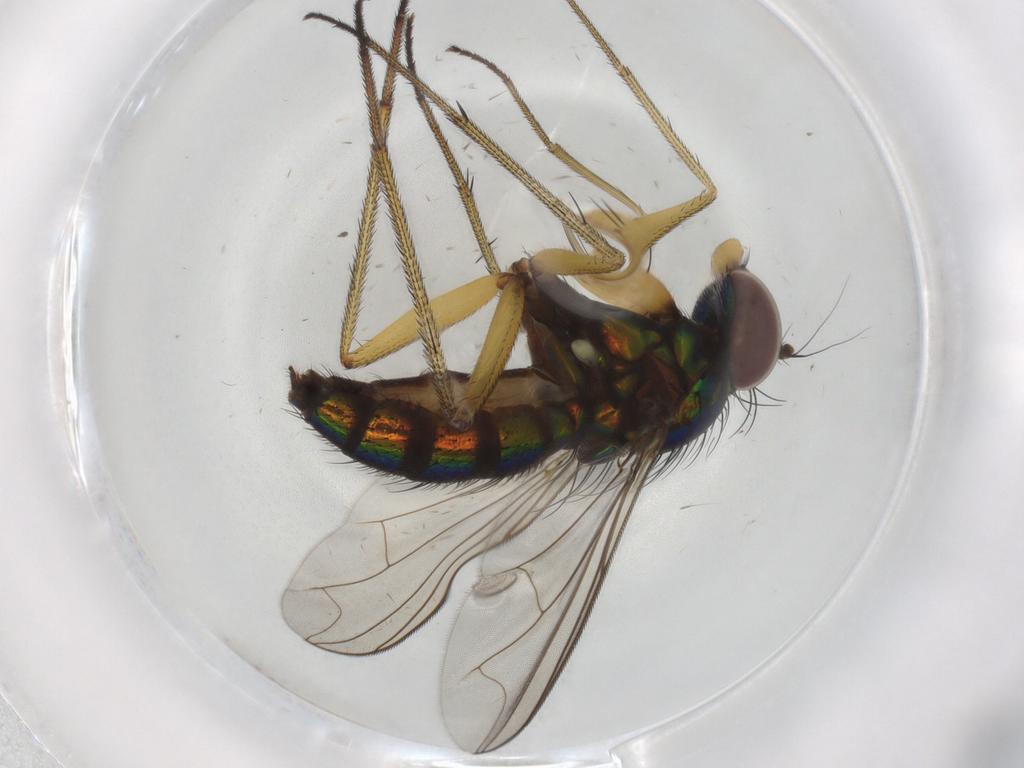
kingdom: Animalia
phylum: Arthropoda
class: Insecta
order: Diptera
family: Dolichopodidae
